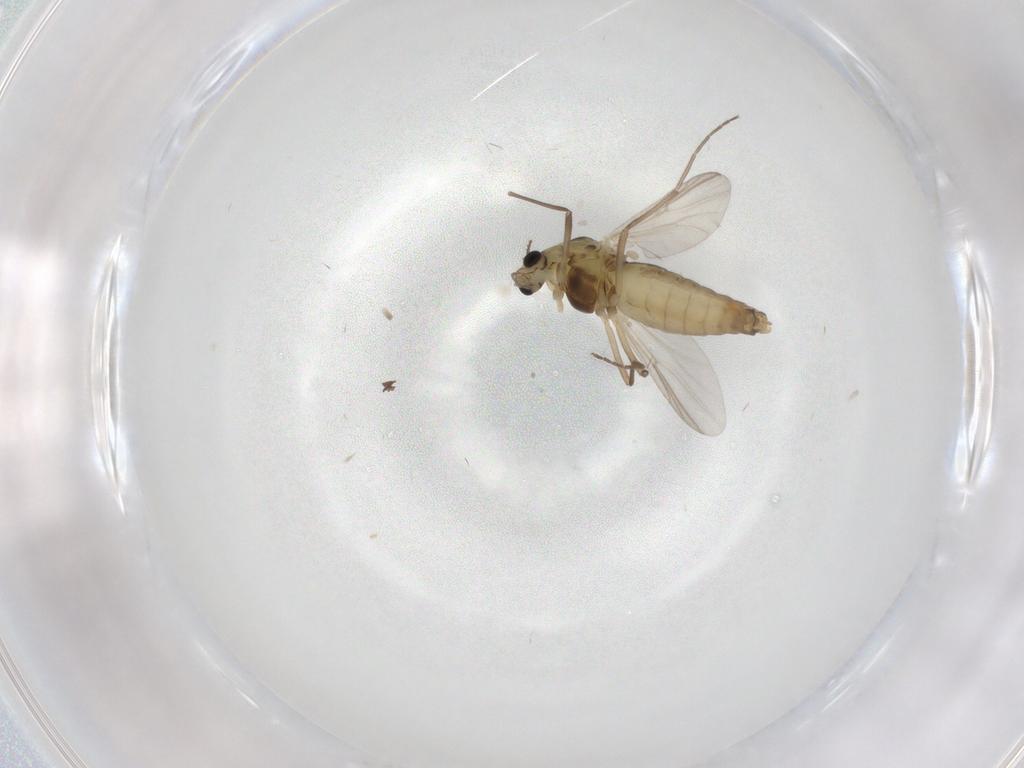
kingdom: Animalia
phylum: Arthropoda
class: Insecta
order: Diptera
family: Chironomidae
